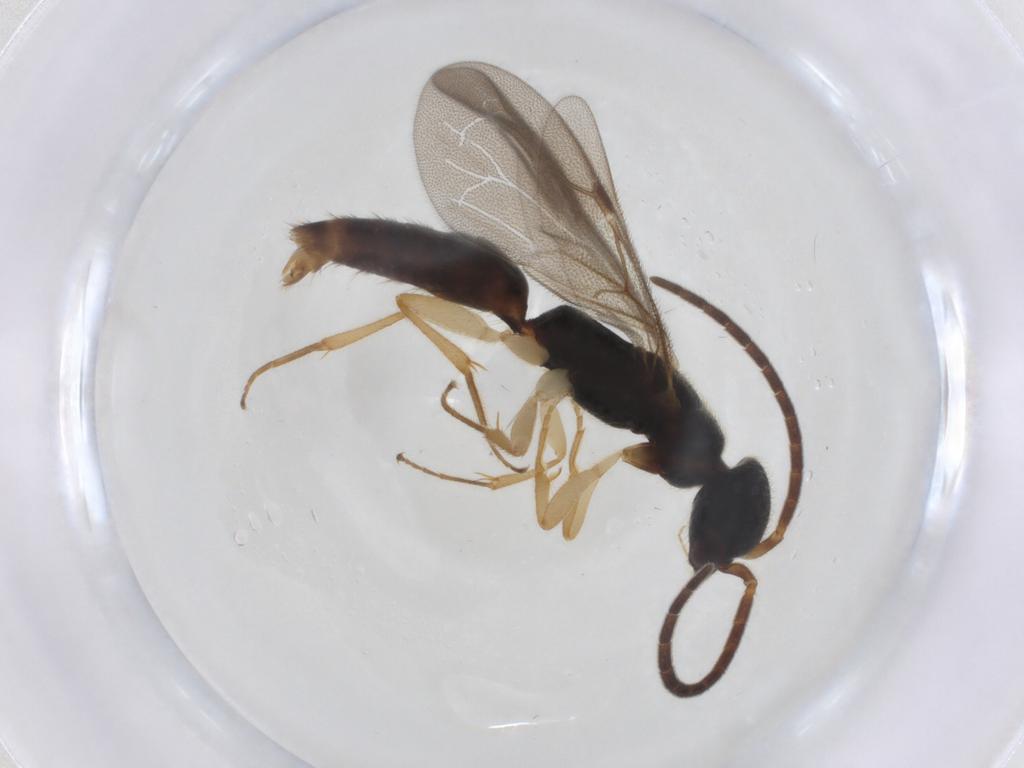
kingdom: Animalia
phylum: Arthropoda
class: Insecta
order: Hymenoptera
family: Bethylidae
